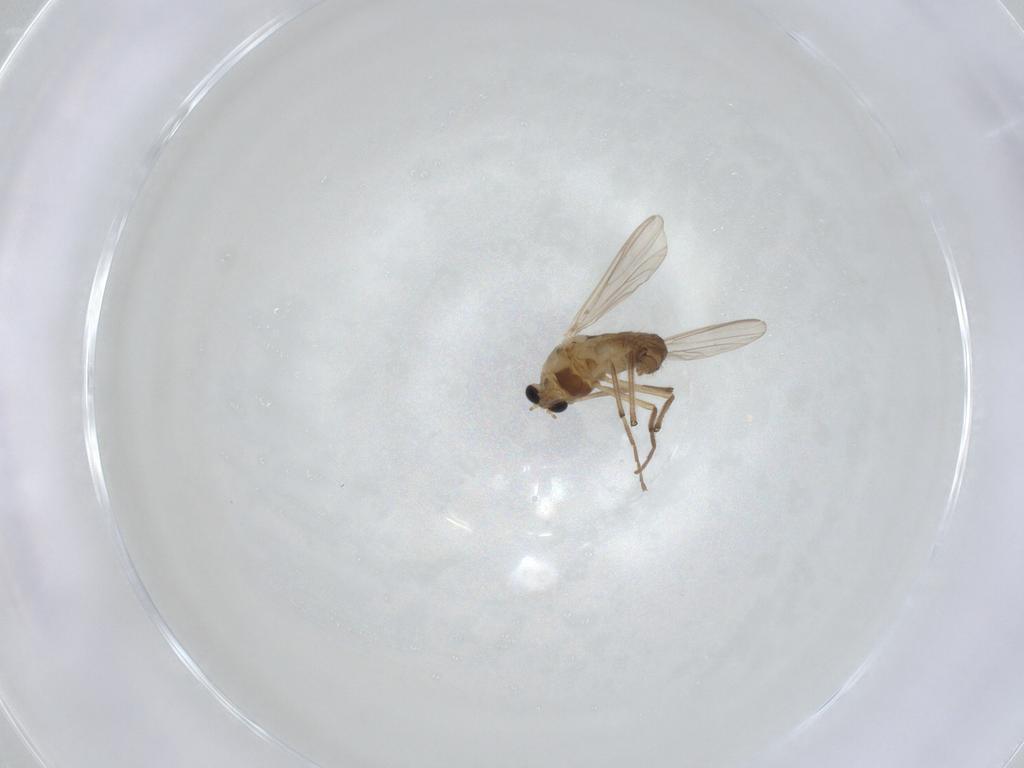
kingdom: Animalia
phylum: Arthropoda
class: Insecta
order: Diptera
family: Chironomidae
